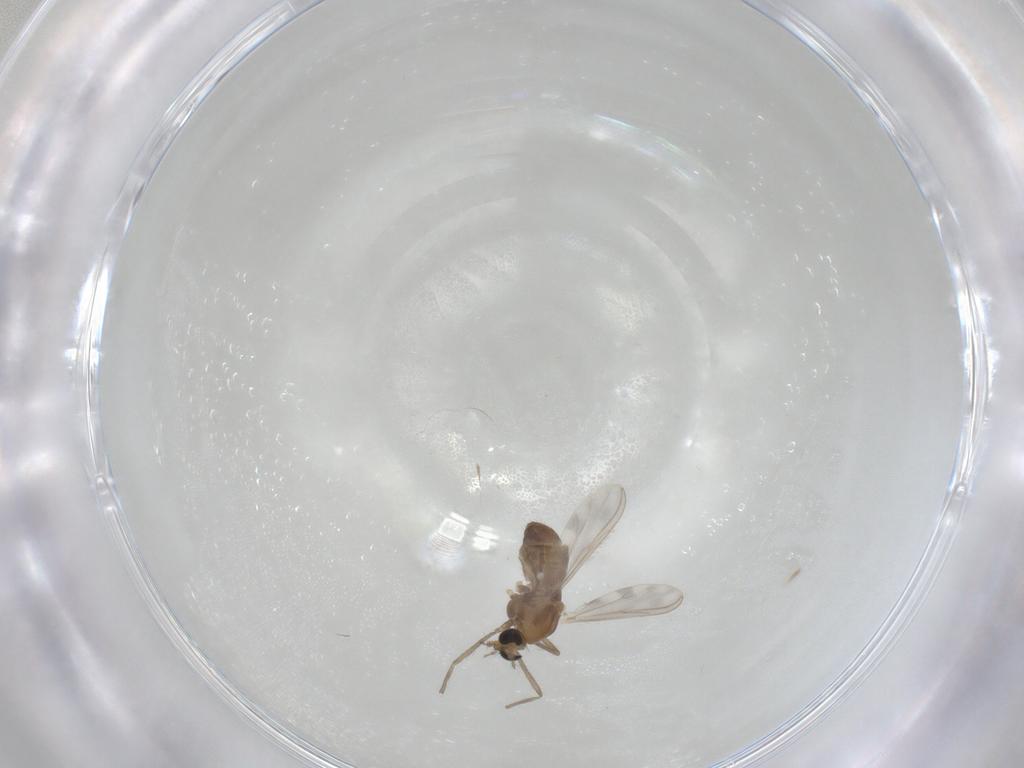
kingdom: Animalia
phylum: Arthropoda
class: Insecta
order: Diptera
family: Chironomidae
